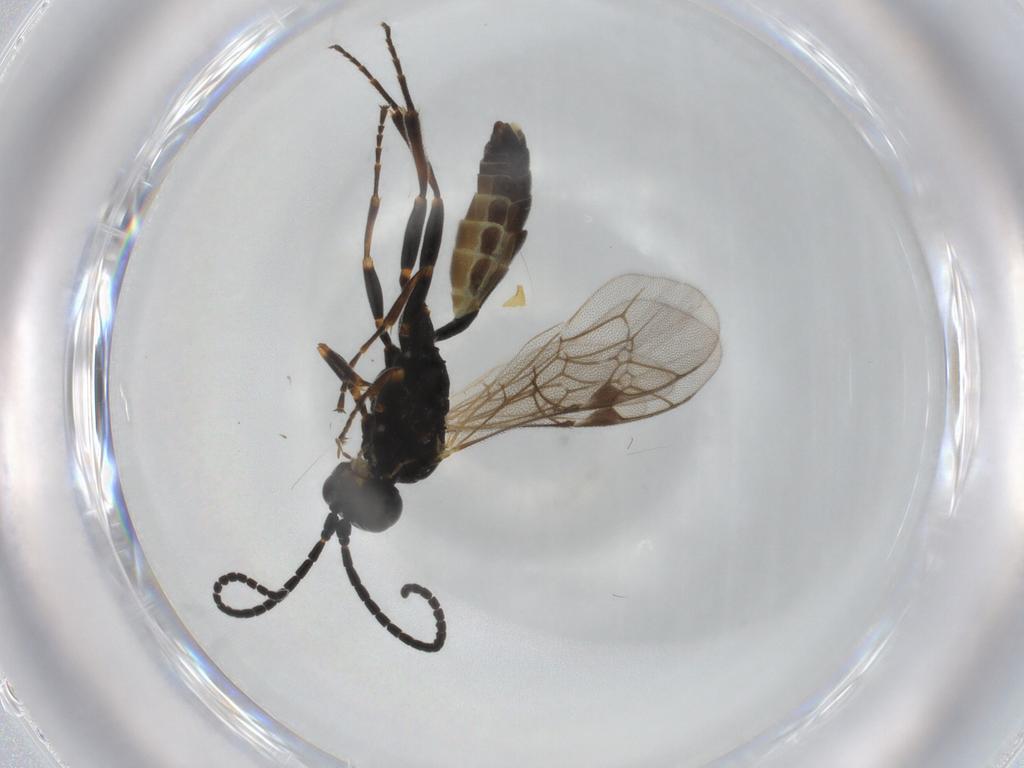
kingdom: Animalia
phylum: Arthropoda
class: Insecta
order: Hymenoptera
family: Ichneumonidae
